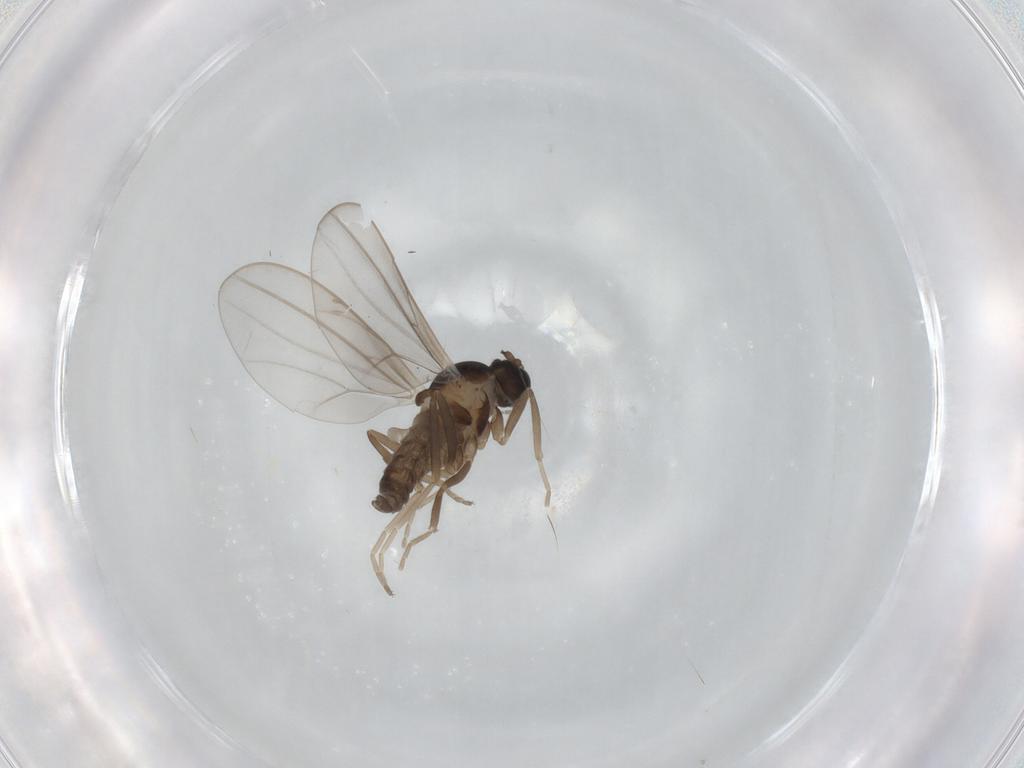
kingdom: Animalia
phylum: Arthropoda
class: Insecta
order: Diptera
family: Cecidomyiidae
